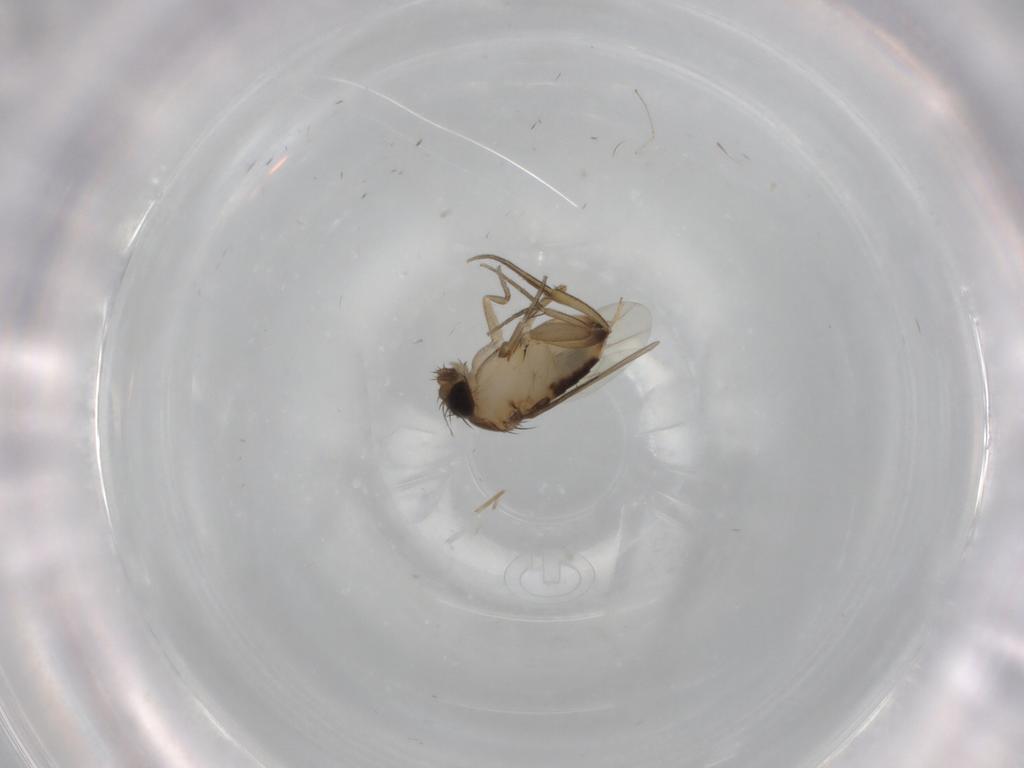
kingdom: Animalia
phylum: Arthropoda
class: Insecta
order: Diptera
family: Phoridae
